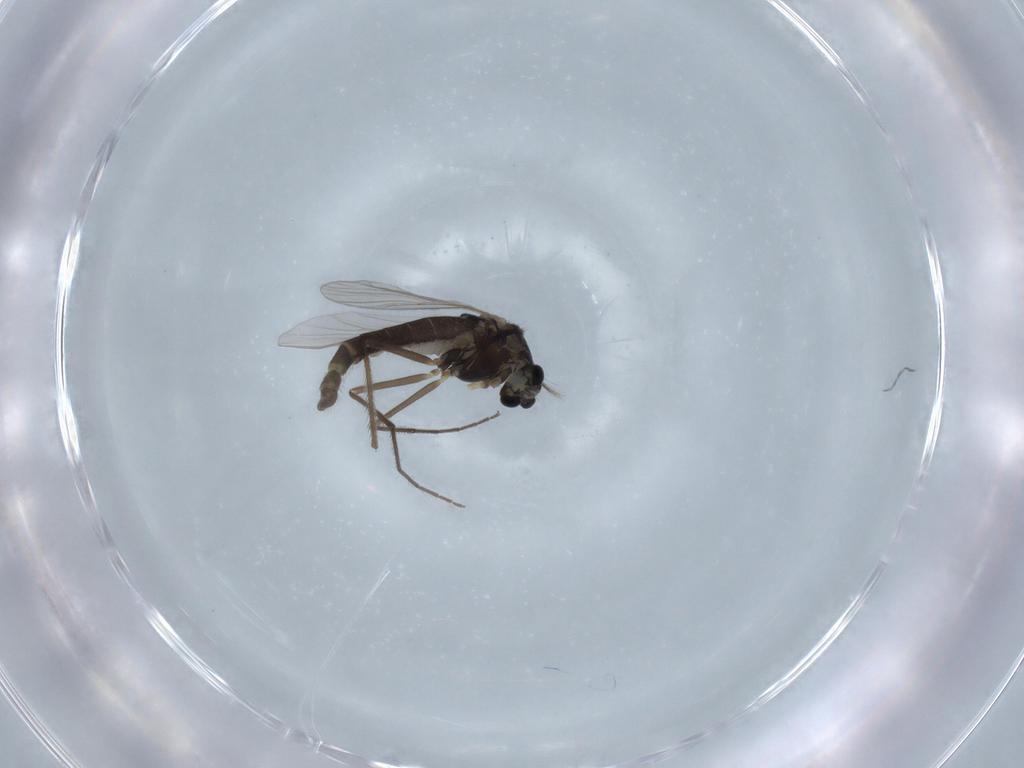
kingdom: Animalia
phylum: Arthropoda
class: Insecta
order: Diptera
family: Chironomidae
